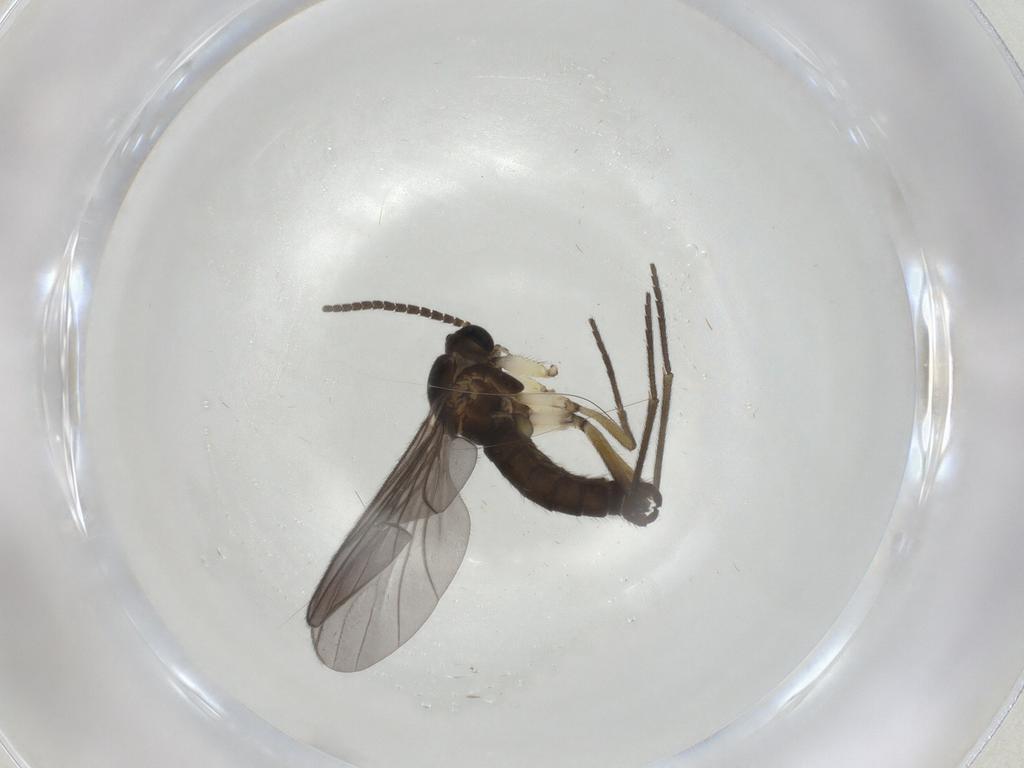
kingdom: Animalia
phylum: Arthropoda
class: Insecta
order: Diptera
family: Sciaridae
